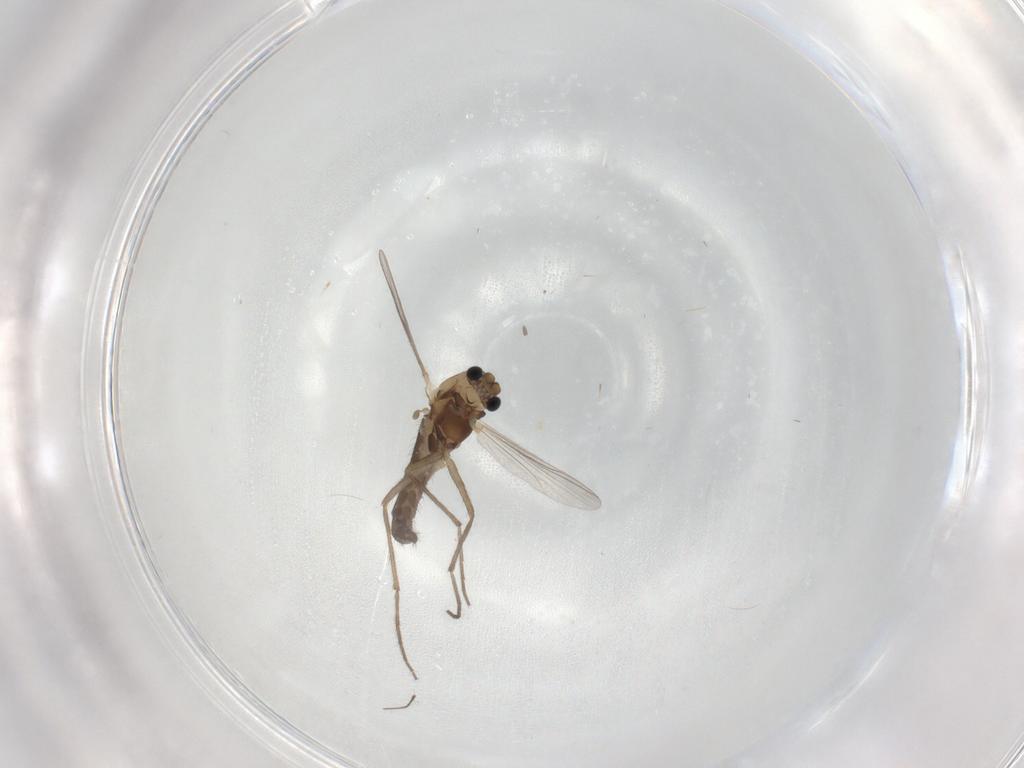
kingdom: Animalia
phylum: Arthropoda
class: Insecta
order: Diptera
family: Chironomidae
